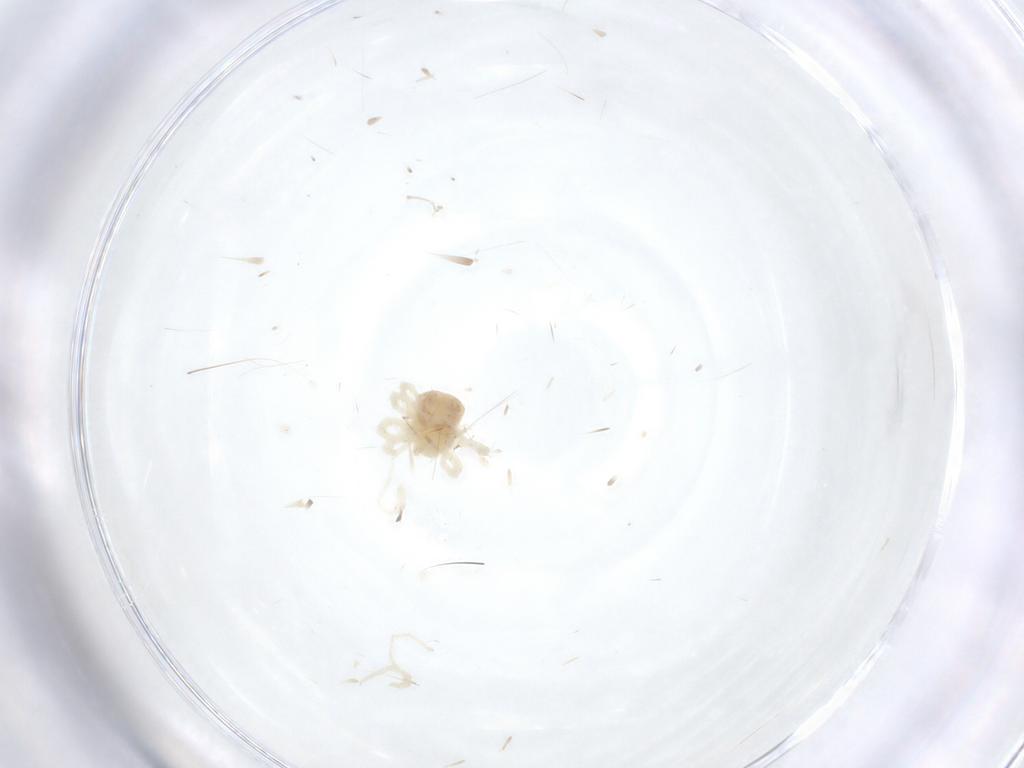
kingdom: Animalia
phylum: Arthropoda
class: Arachnida
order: Trombidiformes
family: Erythraeidae
